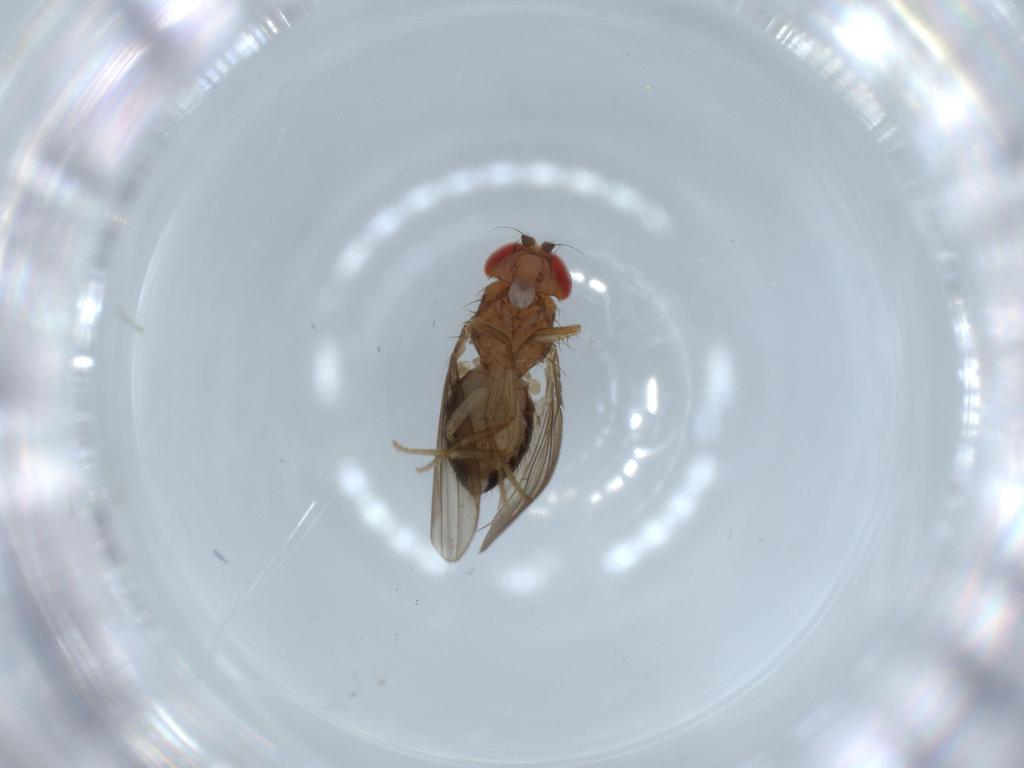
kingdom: Animalia
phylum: Arthropoda
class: Insecta
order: Diptera
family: Drosophilidae
